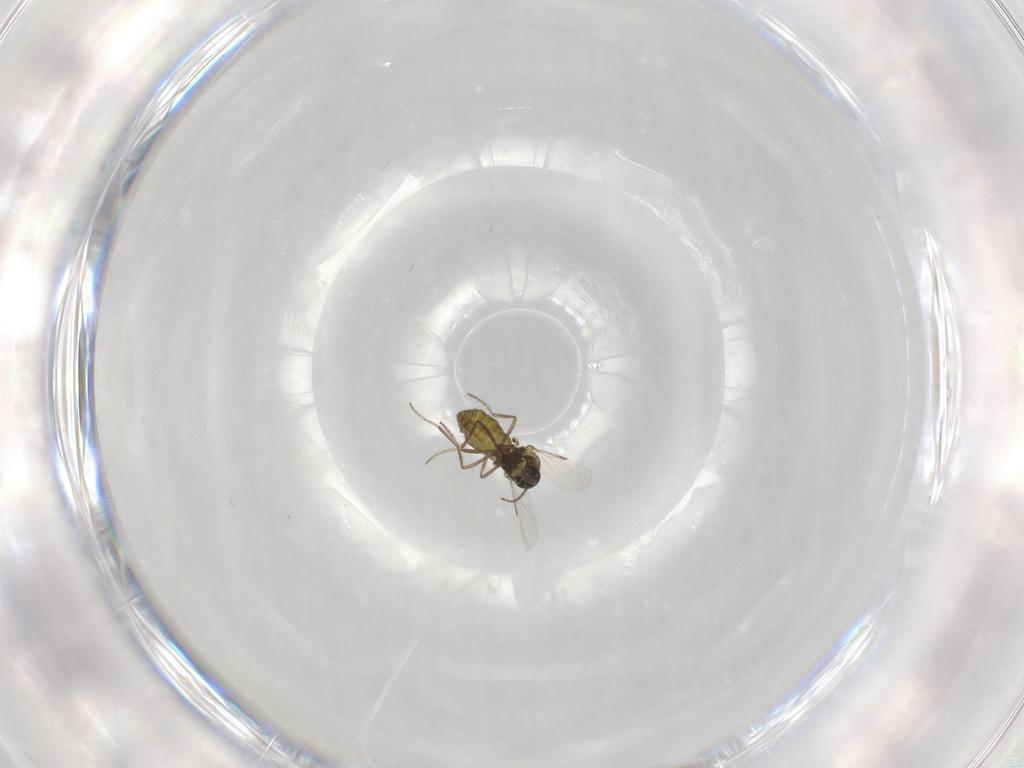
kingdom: Animalia
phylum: Arthropoda
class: Insecta
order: Diptera
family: Ceratopogonidae
